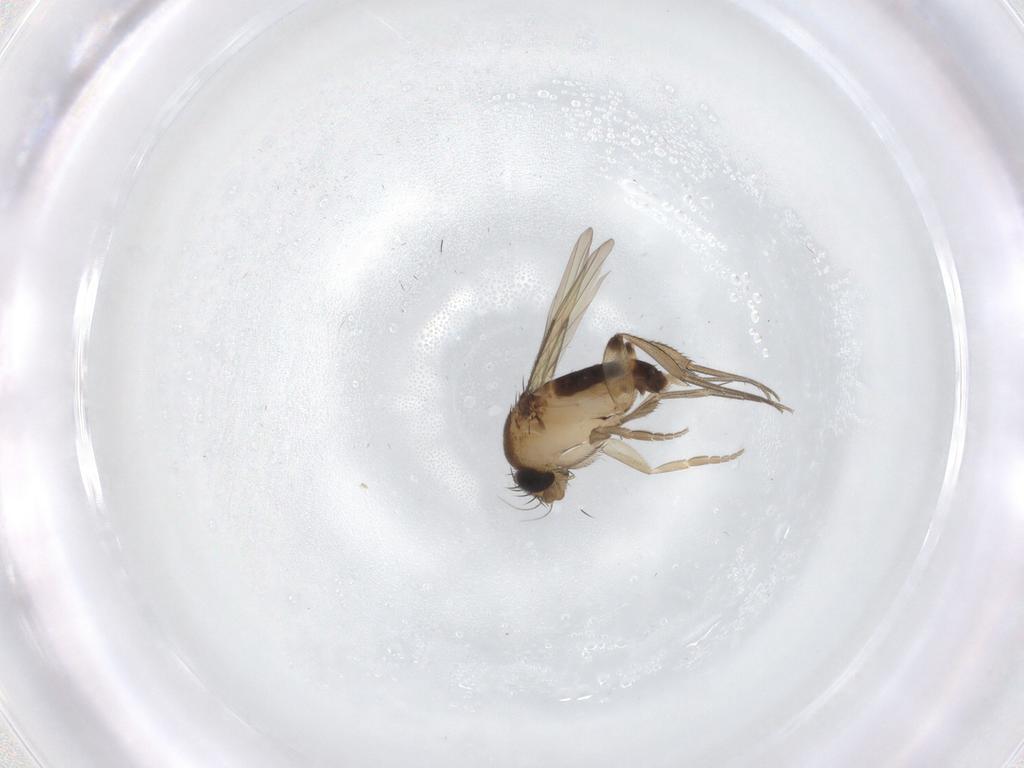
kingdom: Animalia
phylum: Arthropoda
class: Insecta
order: Diptera
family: Phoridae
